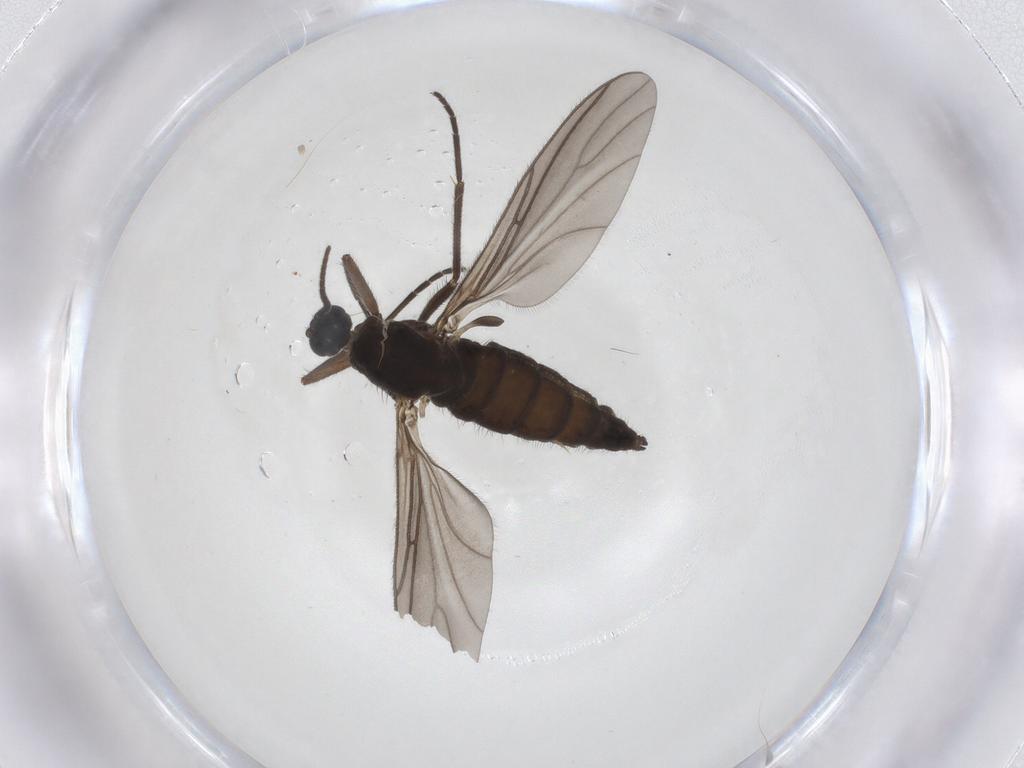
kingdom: Animalia
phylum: Arthropoda
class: Insecta
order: Diptera
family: Sciaridae
